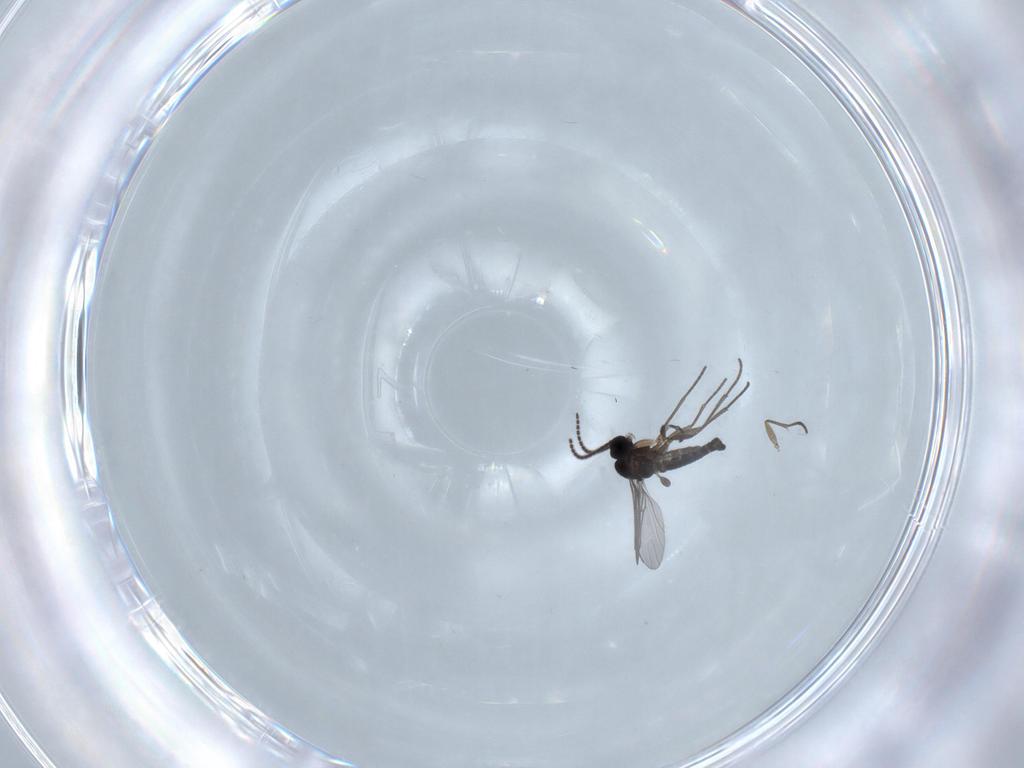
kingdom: Animalia
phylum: Arthropoda
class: Insecta
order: Diptera
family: Sciaridae
